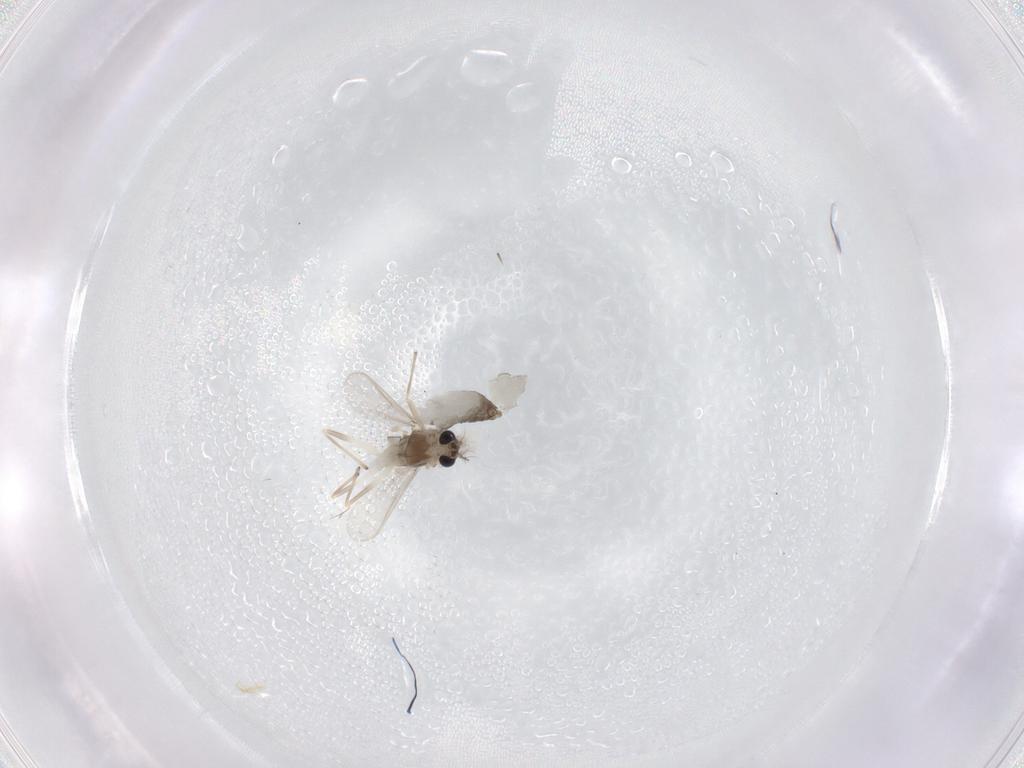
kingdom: Animalia
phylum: Arthropoda
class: Insecta
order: Diptera
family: Chironomidae
